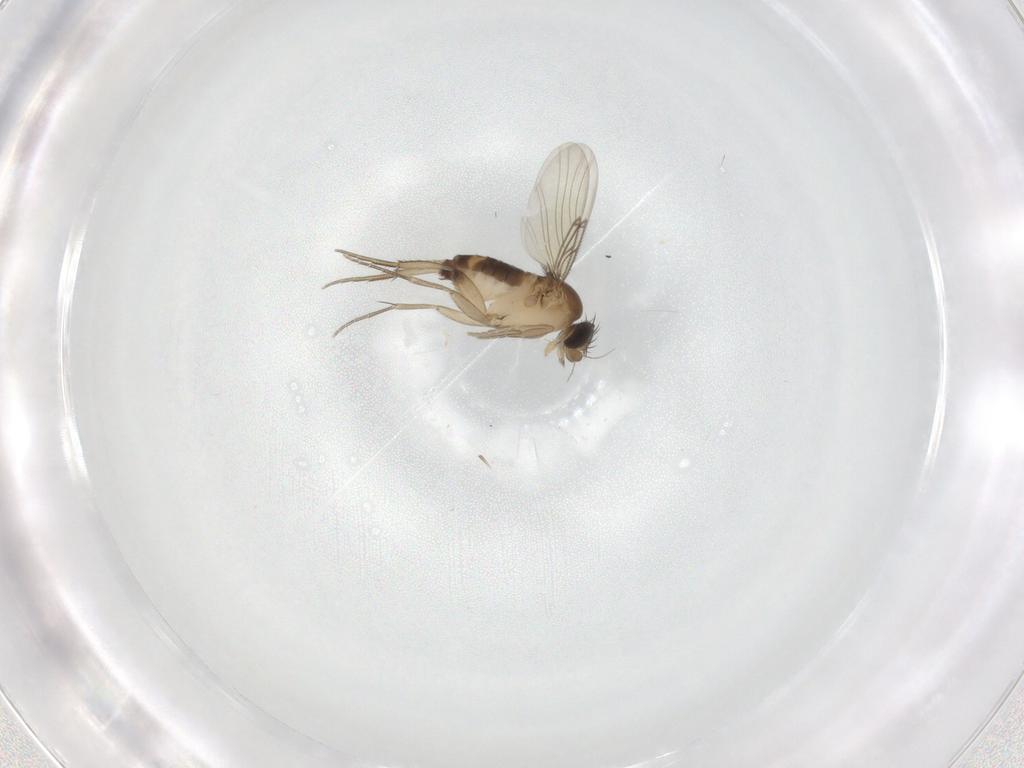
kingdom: Animalia
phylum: Arthropoda
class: Insecta
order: Diptera
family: Phoridae
